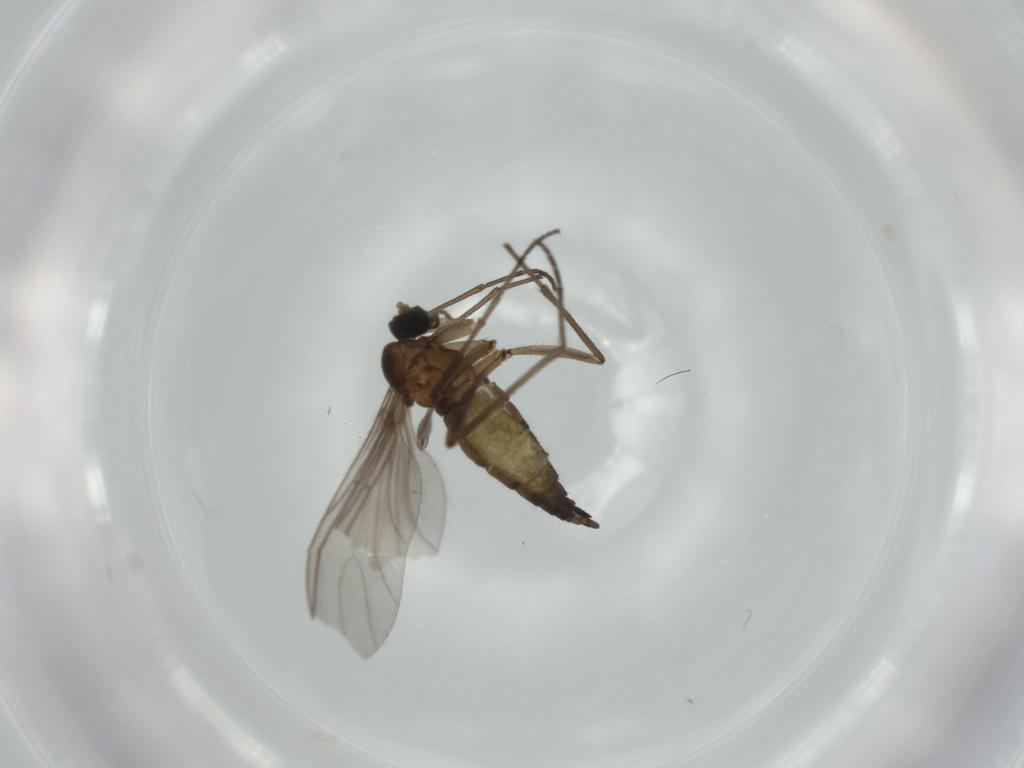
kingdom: Animalia
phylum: Arthropoda
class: Insecta
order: Diptera
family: Sciaridae
